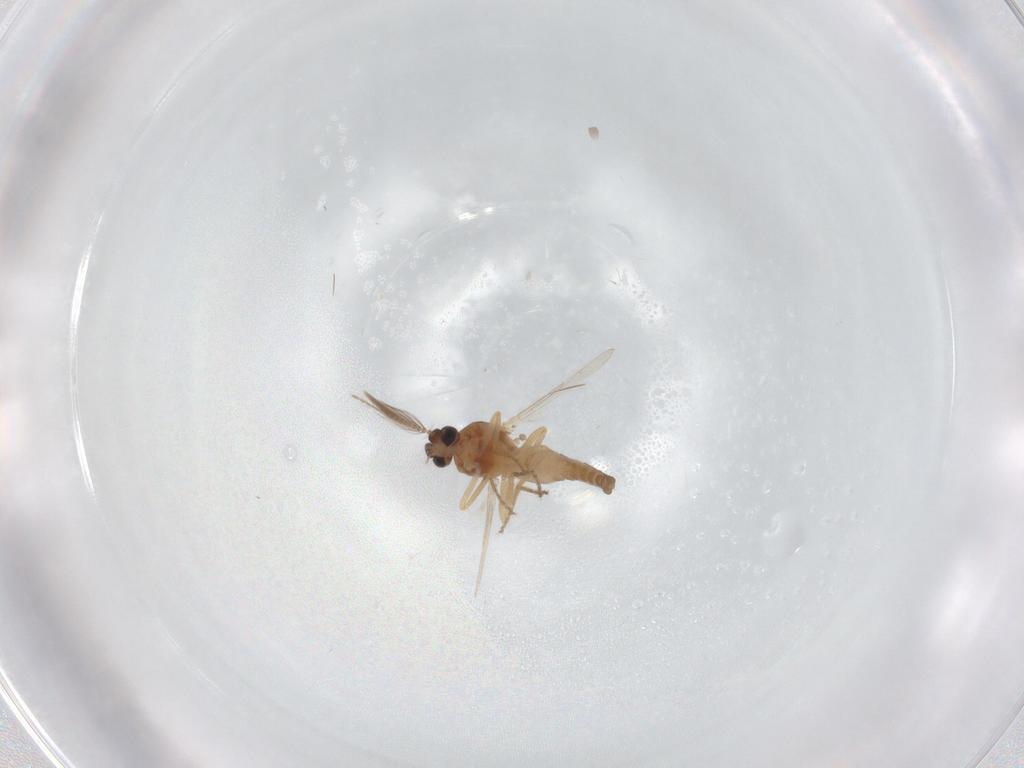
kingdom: Animalia
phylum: Arthropoda
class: Insecta
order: Diptera
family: Ceratopogonidae
